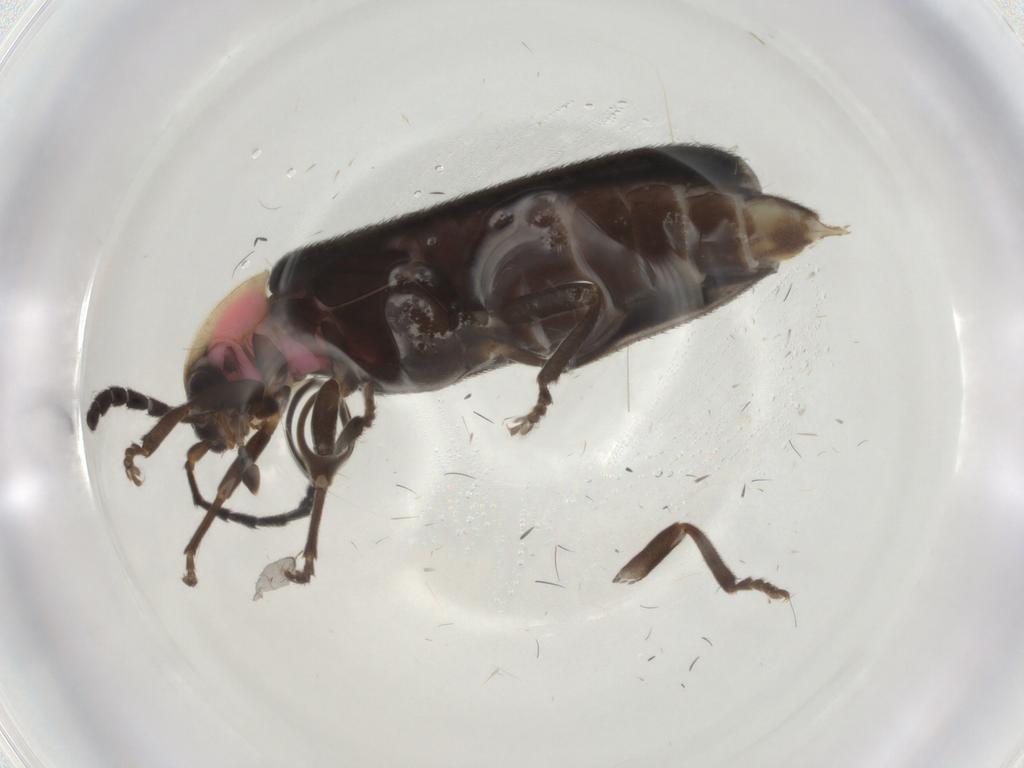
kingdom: Animalia
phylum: Arthropoda
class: Insecta
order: Coleoptera
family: Lampyridae
